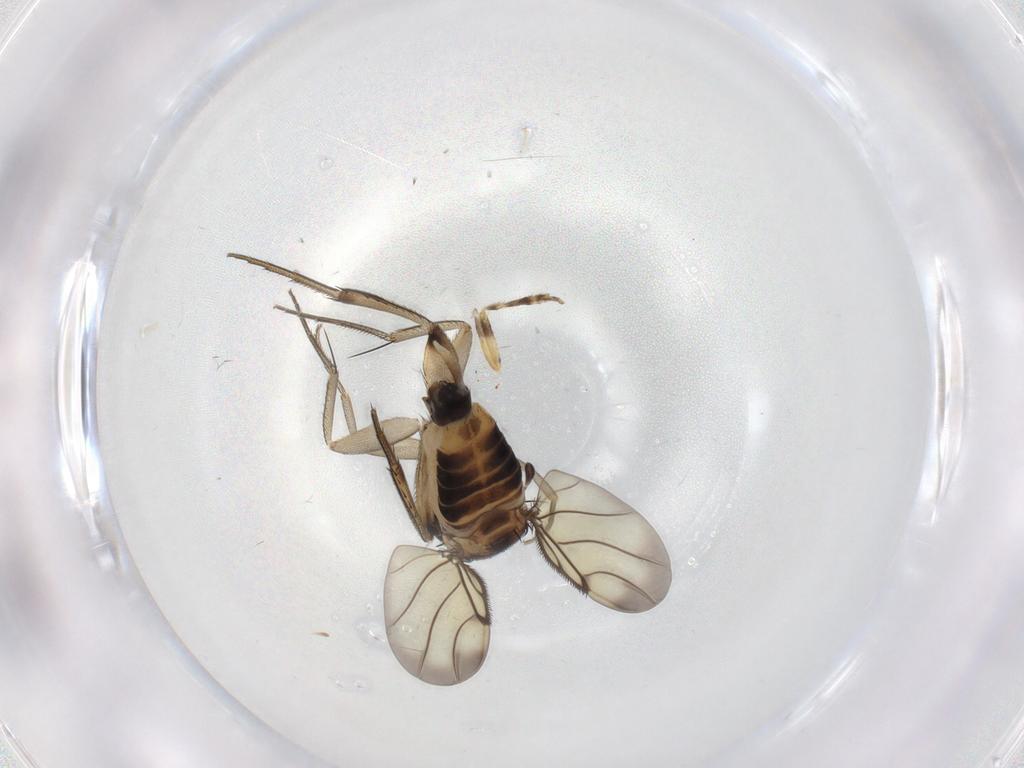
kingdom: Animalia
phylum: Arthropoda
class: Insecta
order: Diptera
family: Phoridae
